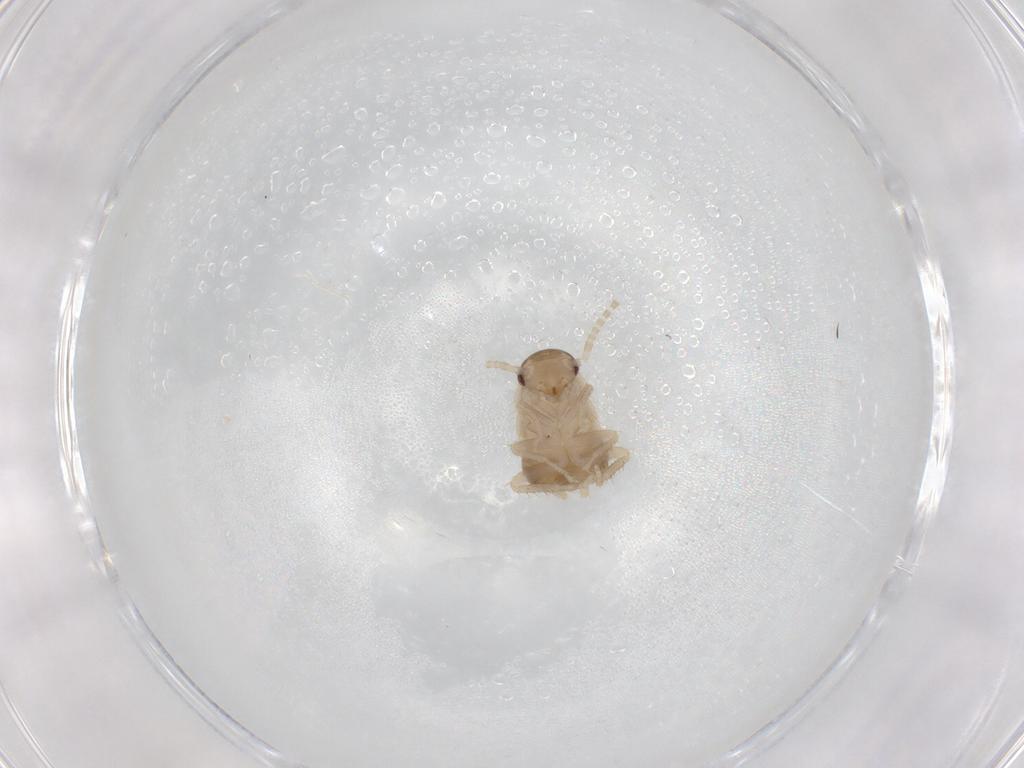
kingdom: Animalia
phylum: Arthropoda
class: Insecta
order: Blattodea
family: Ectobiidae
